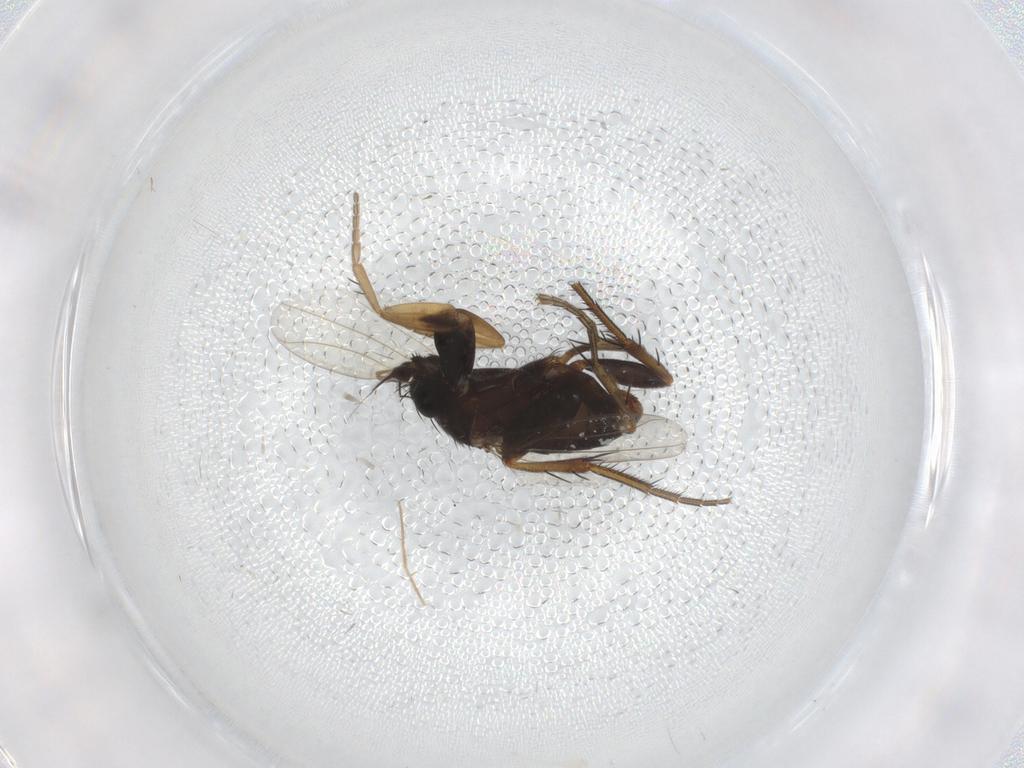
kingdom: Animalia
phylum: Arthropoda
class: Insecta
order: Diptera
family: Phoridae
